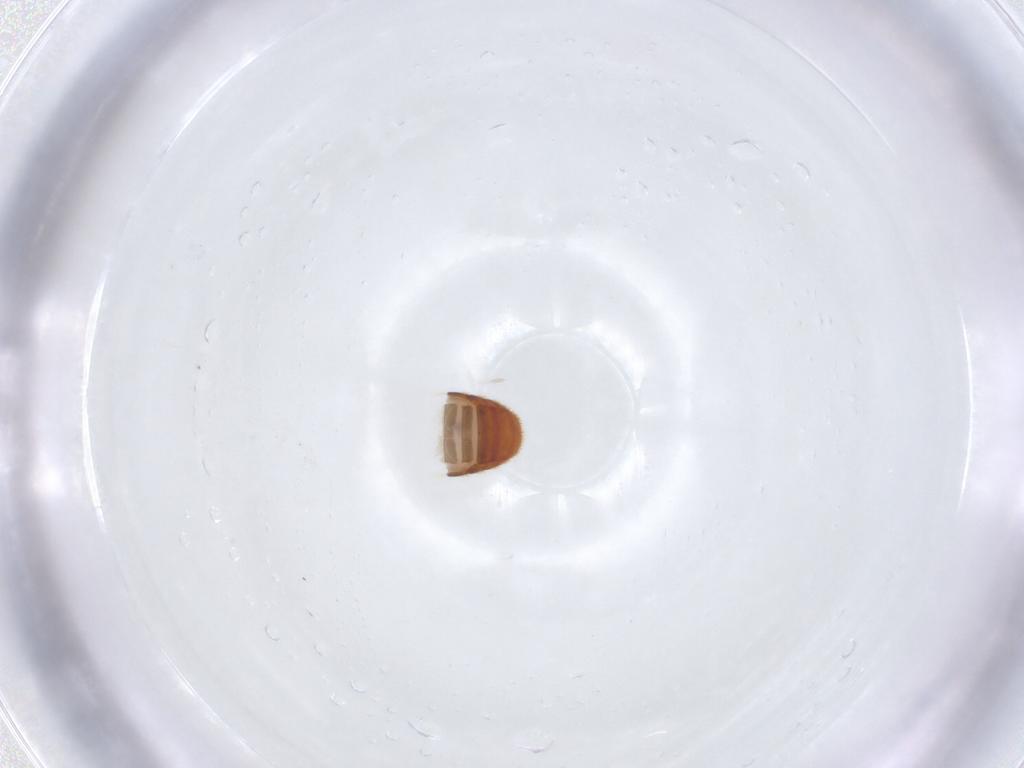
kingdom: Animalia
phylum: Arthropoda
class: Insecta
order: Coleoptera
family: Corylophidae
